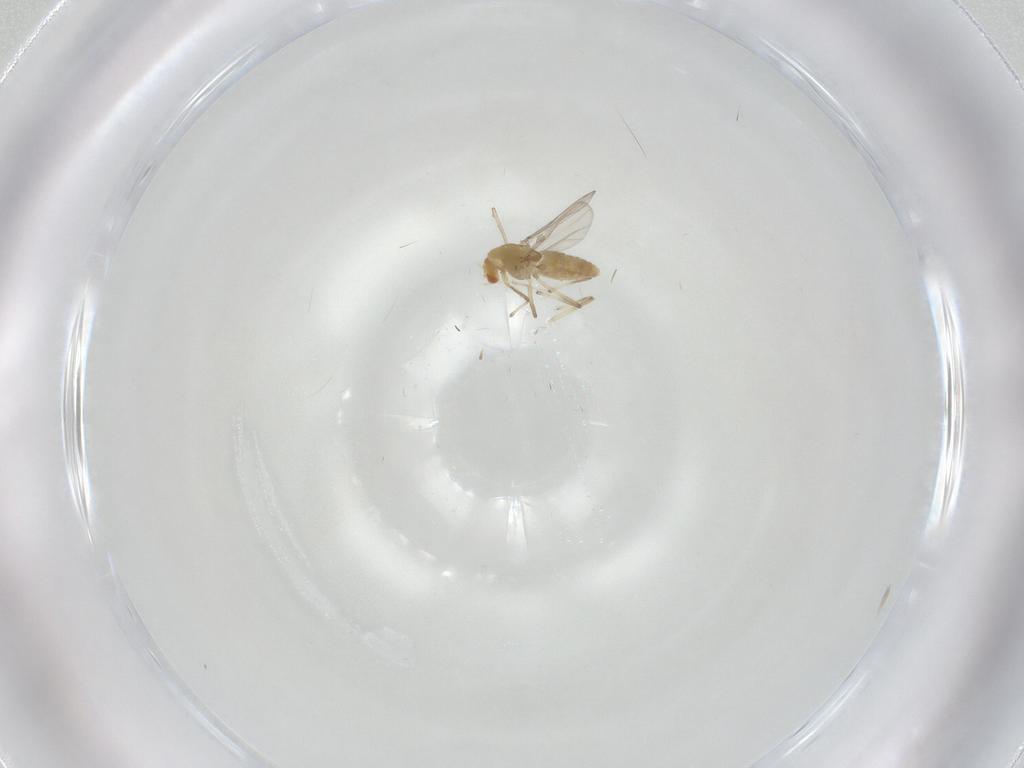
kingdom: Animalia
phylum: Arthropoda
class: Insecta
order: Diptera
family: Chironomidae
